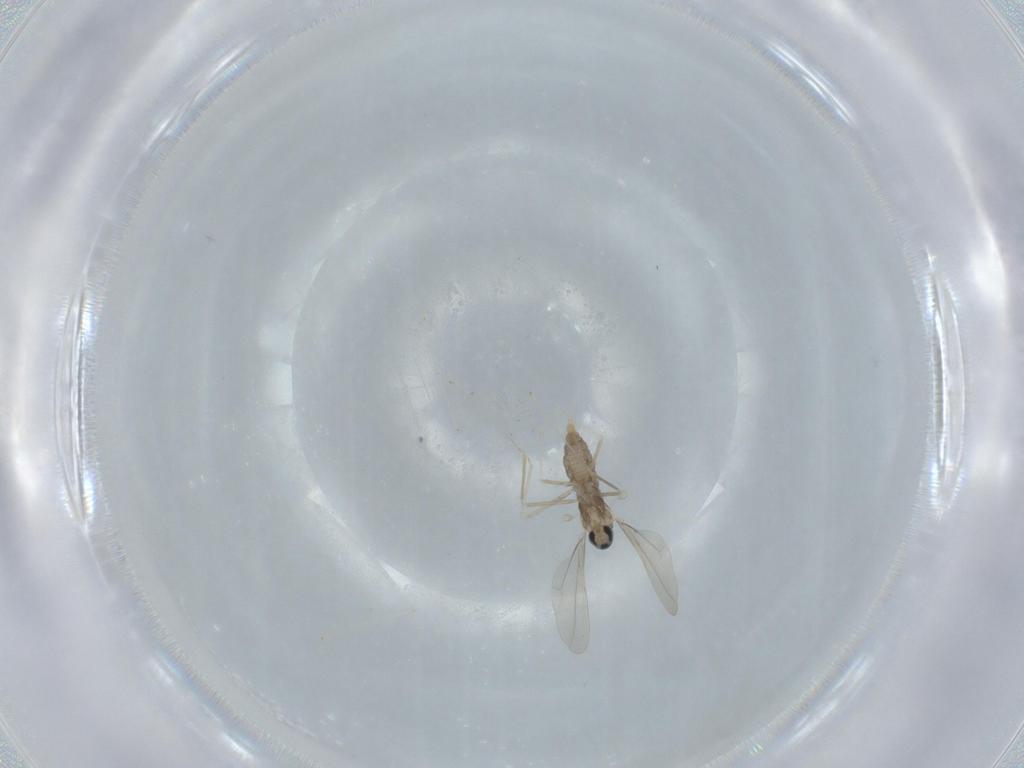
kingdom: Animalia
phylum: Arthropoda
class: Insecta
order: Diptera
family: Cecidomyiidae
